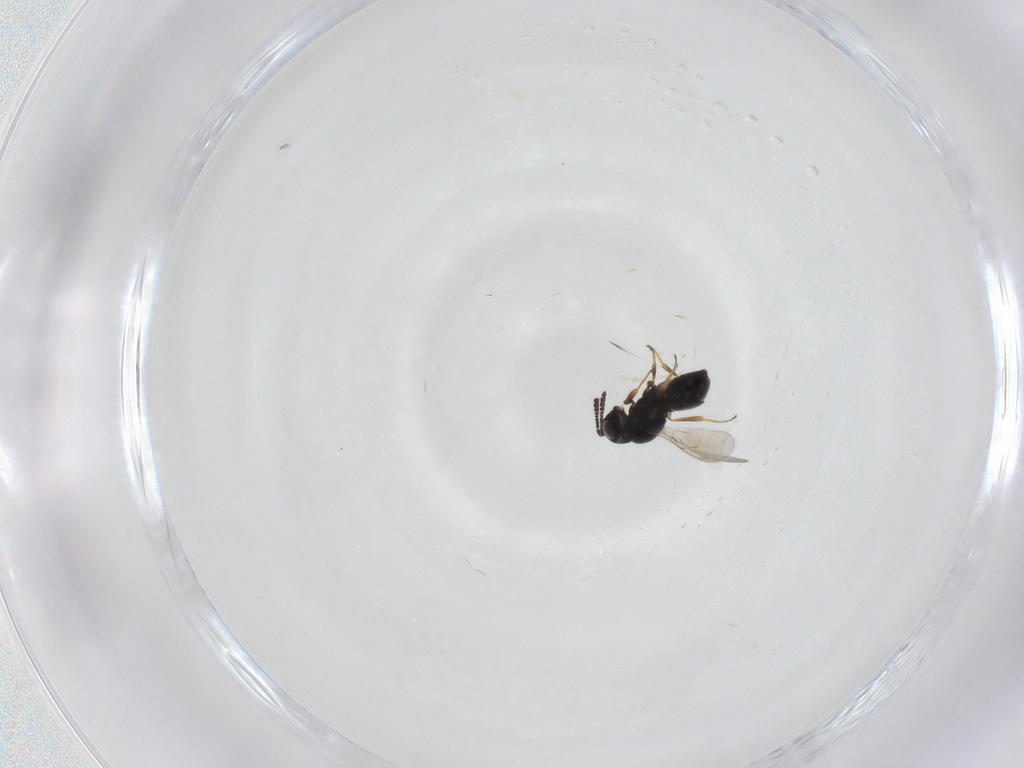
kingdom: Animalia
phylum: Arthropoda
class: Insecta
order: Hymenoptera
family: Scelionidae
